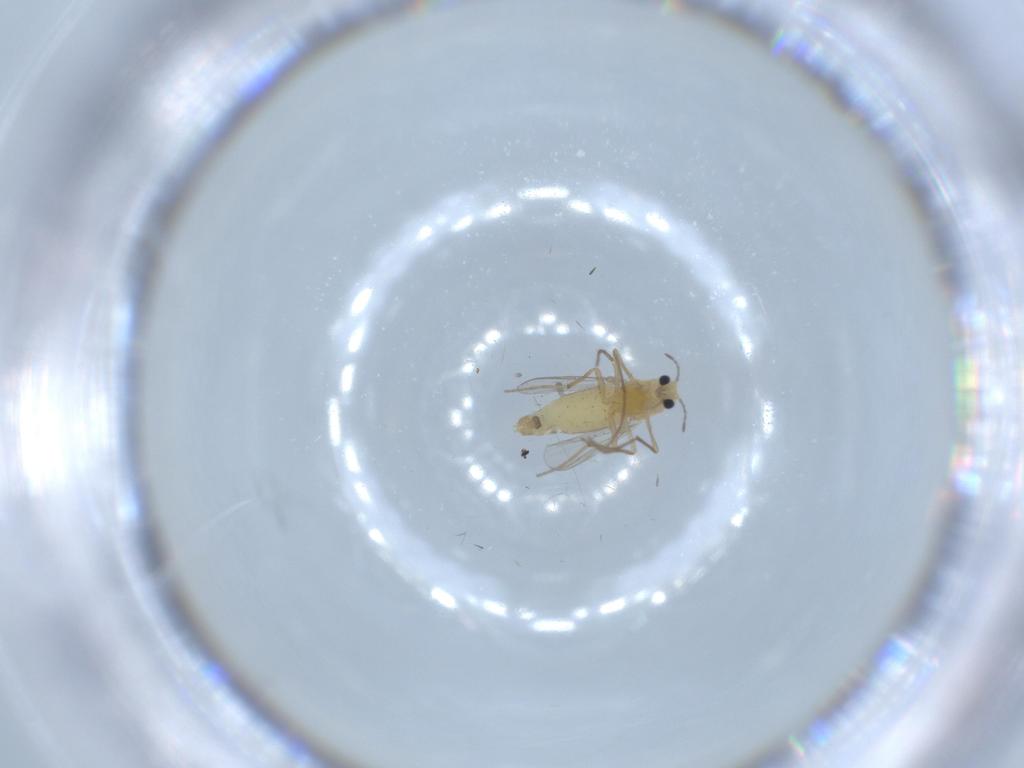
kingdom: Animalia
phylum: Arthropoda
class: Insecta
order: Diptera
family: Chironomidae
